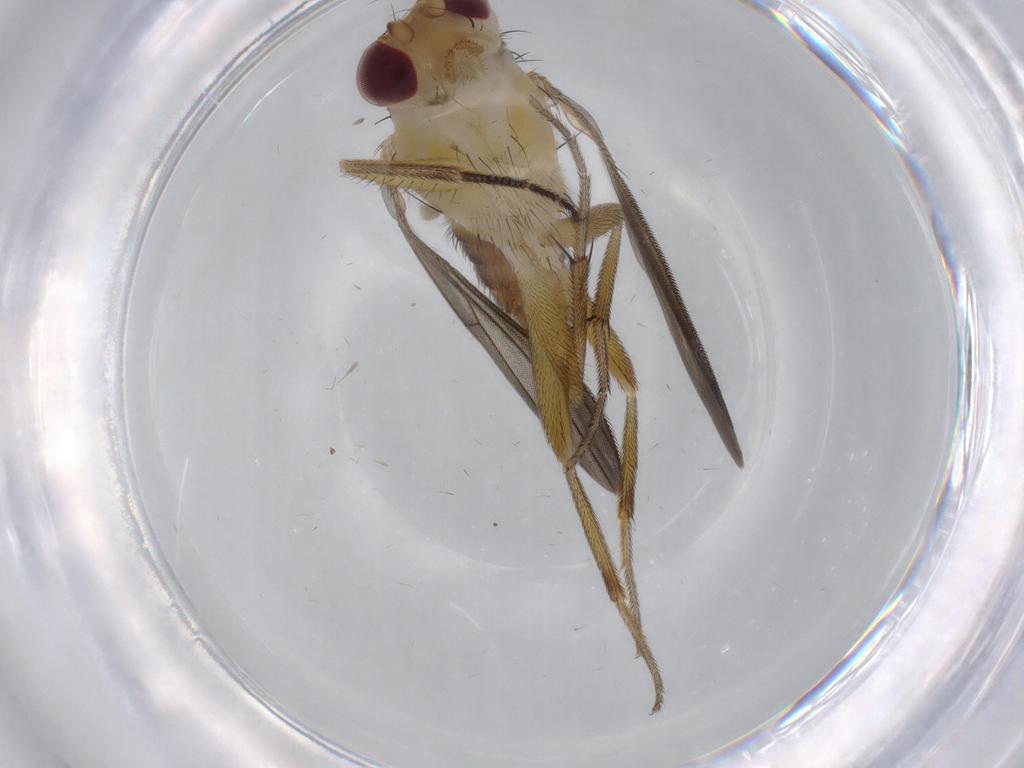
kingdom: Animalia
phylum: Arthropoda
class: Insecta
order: Diptera
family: Clusiidae
